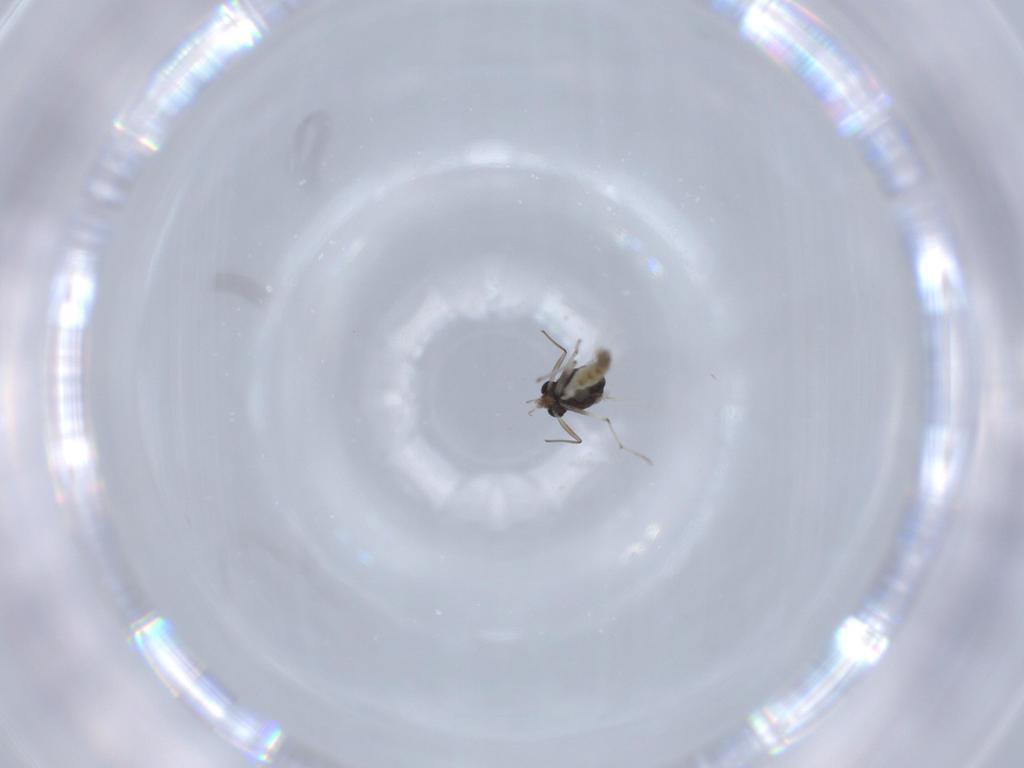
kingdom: Animalia
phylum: Arthropoda
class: Insecta
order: Diptera
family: Chironomidae
